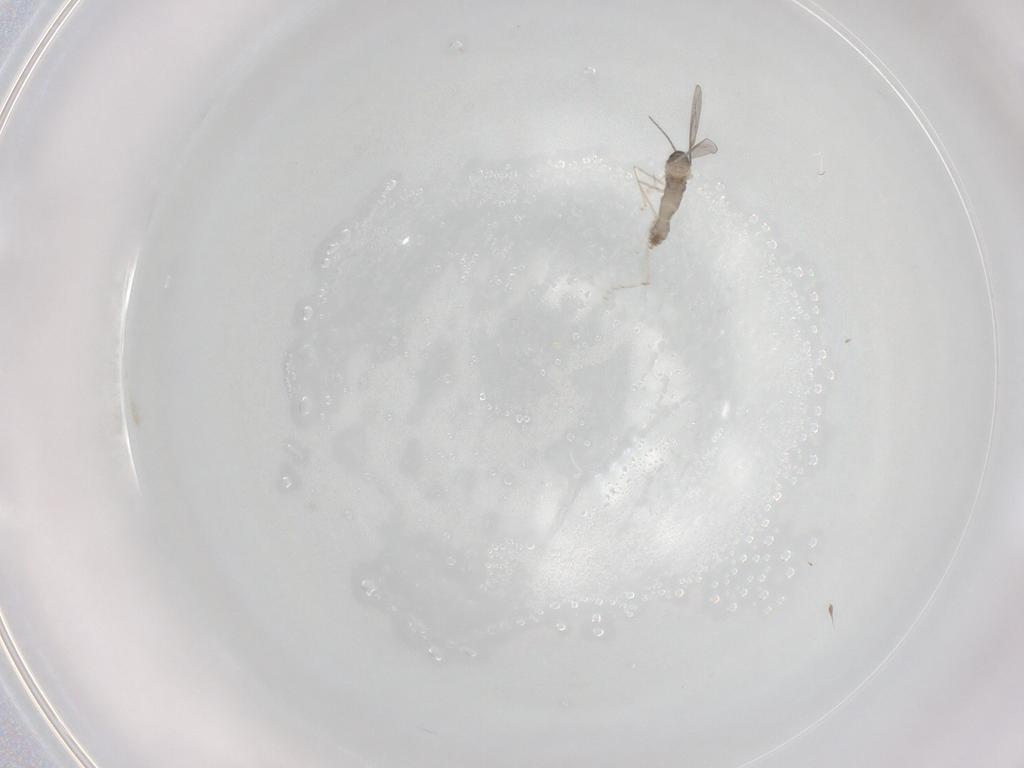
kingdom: Animalia
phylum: Arthropoda
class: Insecta
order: Diptera
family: Cecidomyiidae
